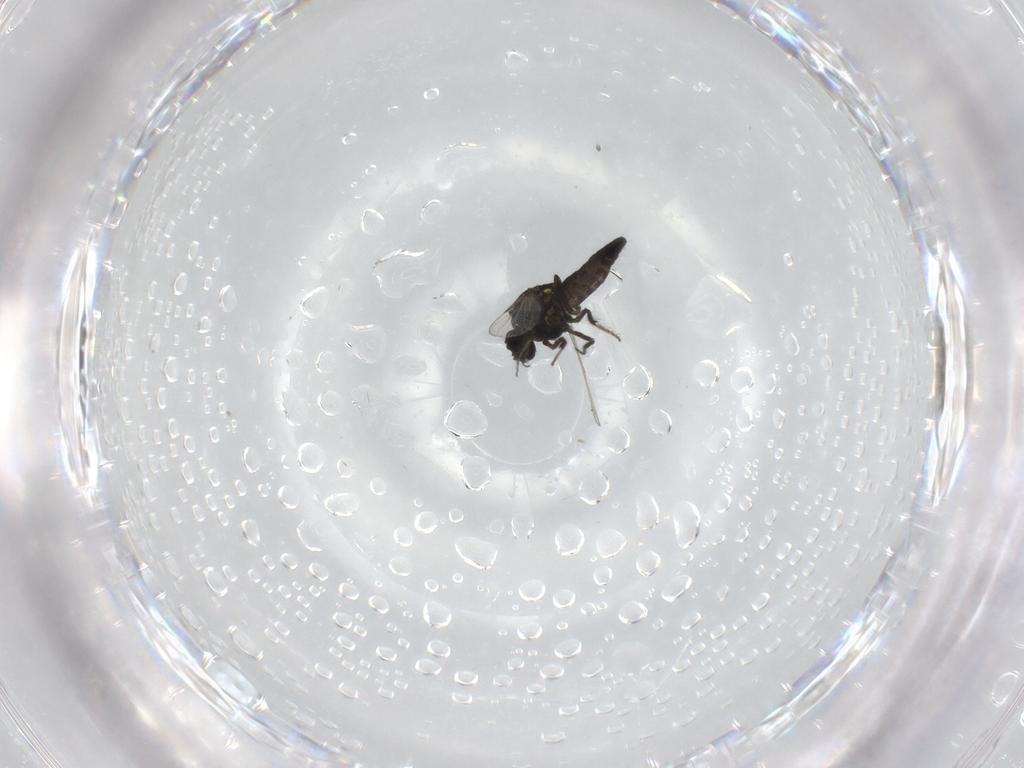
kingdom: Animalia
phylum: Arthropoda
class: Insecta
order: Diptera
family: Ceratopogonidae
